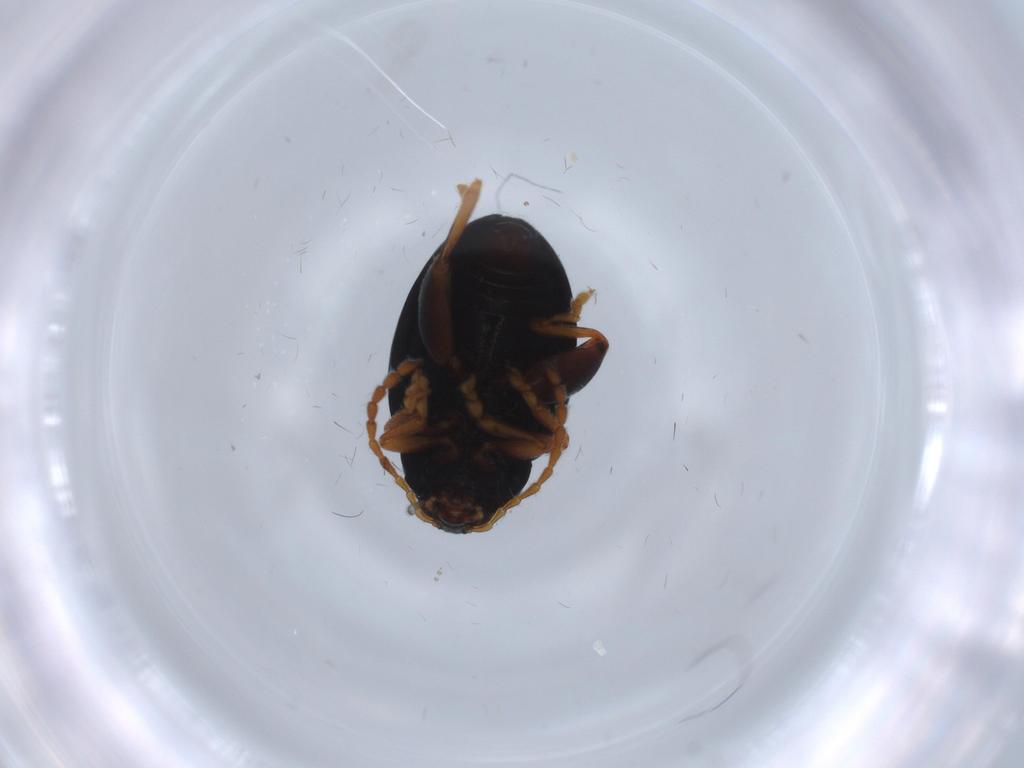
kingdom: Animalia
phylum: Arthropoda
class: Insecta
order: Coleoptera
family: Chrysomelidae
